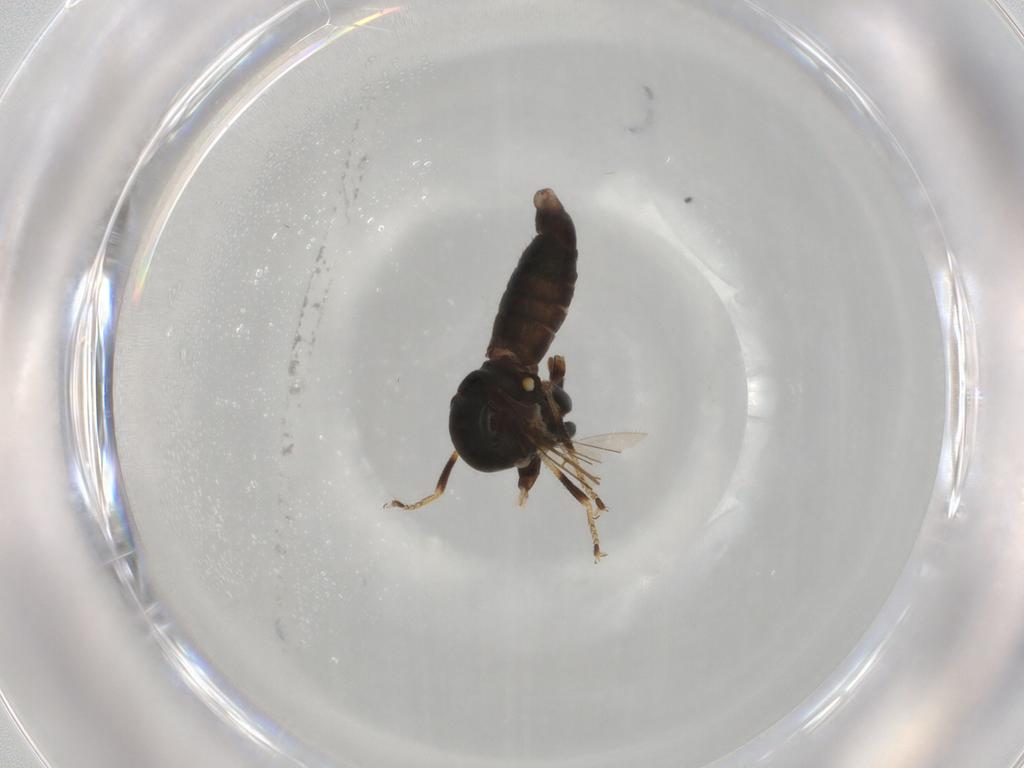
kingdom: Animalia
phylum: Arthropoda
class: Insecta
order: Diptera
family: Pipunculidae
